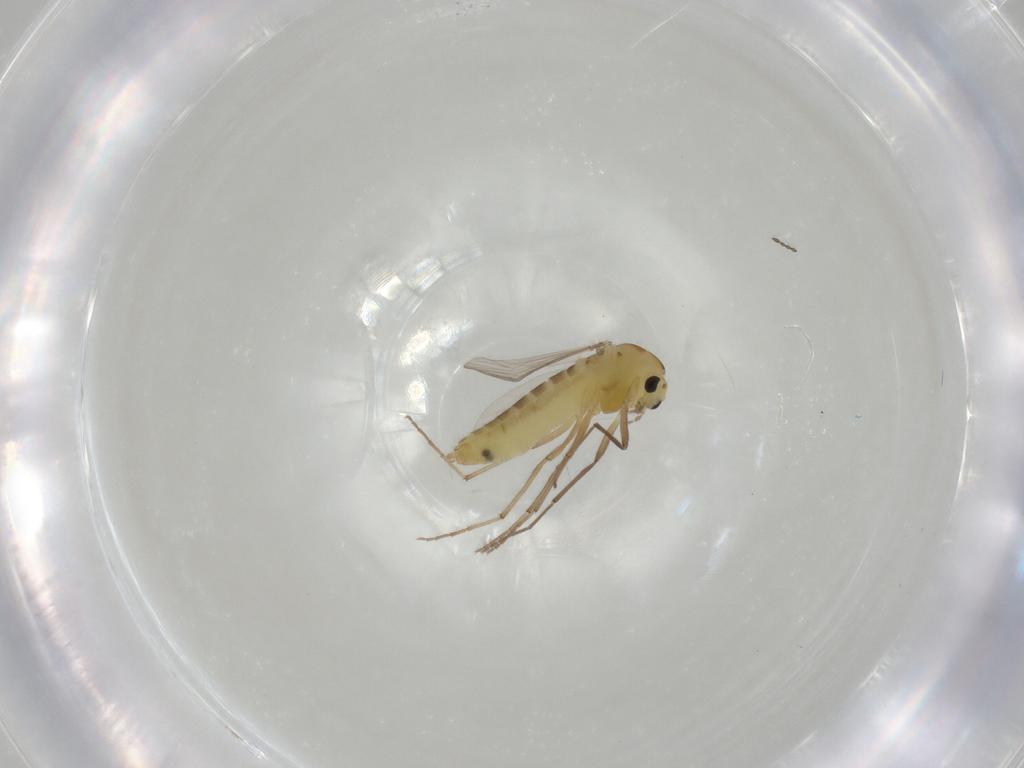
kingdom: Animalia
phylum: Arthropoda
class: Insecta
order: Diptera
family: Chironomidae
